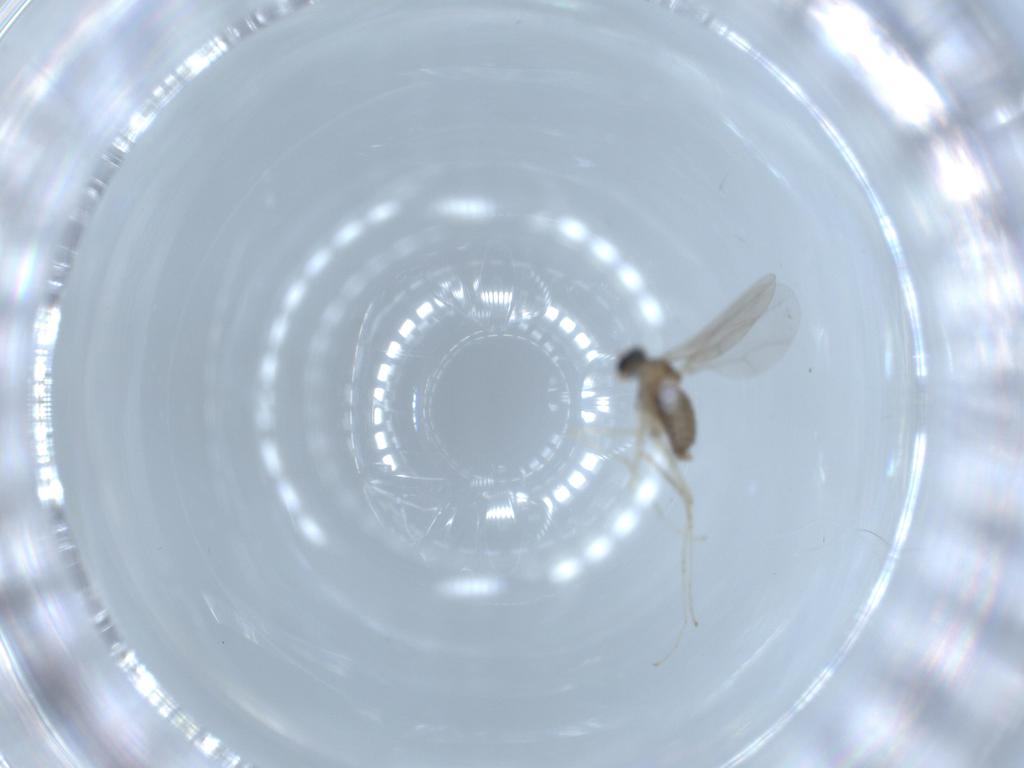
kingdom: Animalia
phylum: Arthropoda
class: Insecta
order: Diptera
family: Cecidomyiidae
